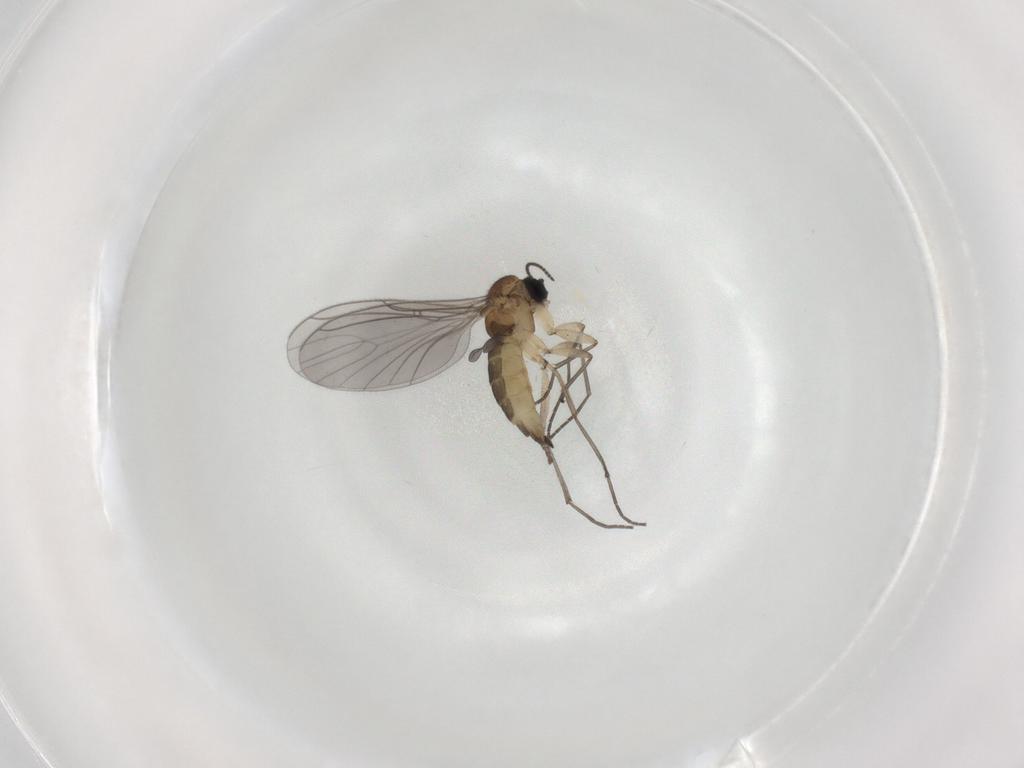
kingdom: Animalia
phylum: Arthropoda
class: Insecta
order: Diptera
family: Sciaridae
